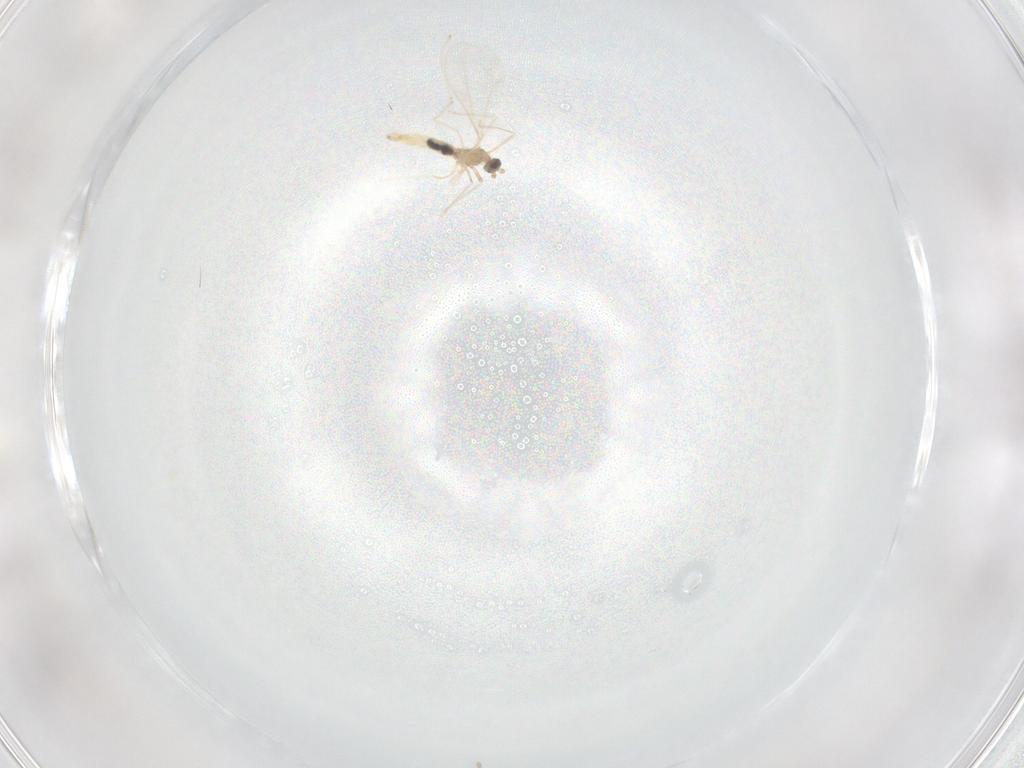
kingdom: Animalia
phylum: Arthropoda
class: Insecta
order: Diptera
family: Cecidomyiidae
